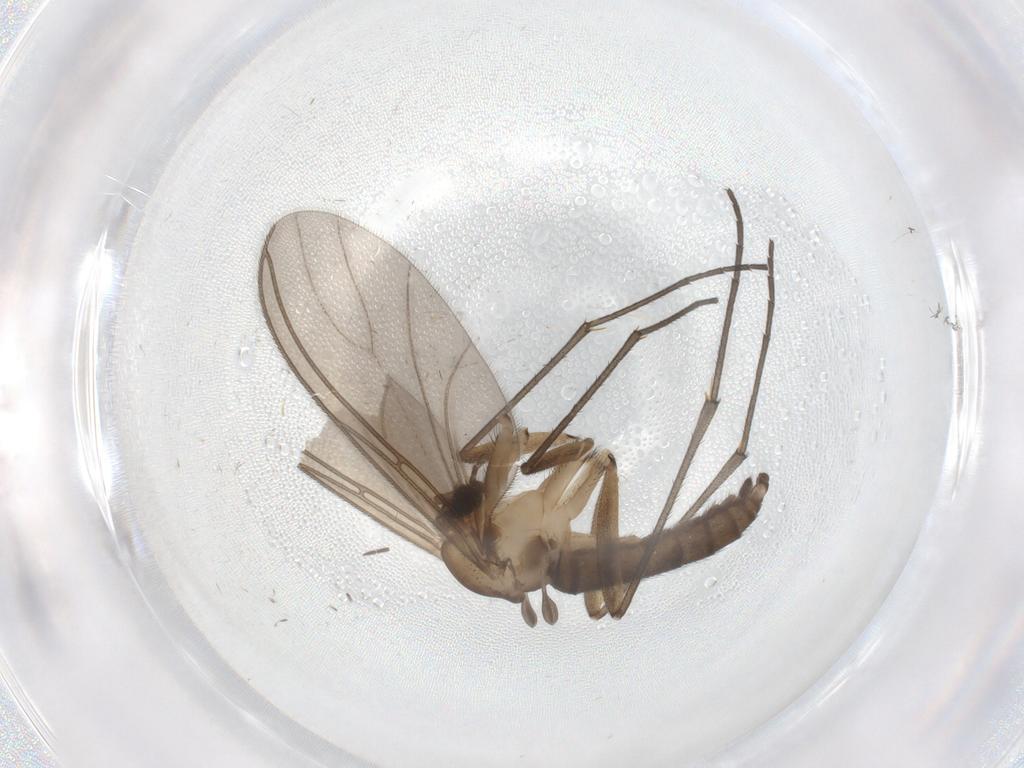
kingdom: Animalia
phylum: Arthropoda
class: Insecta
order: Diptera
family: Sciaridae
